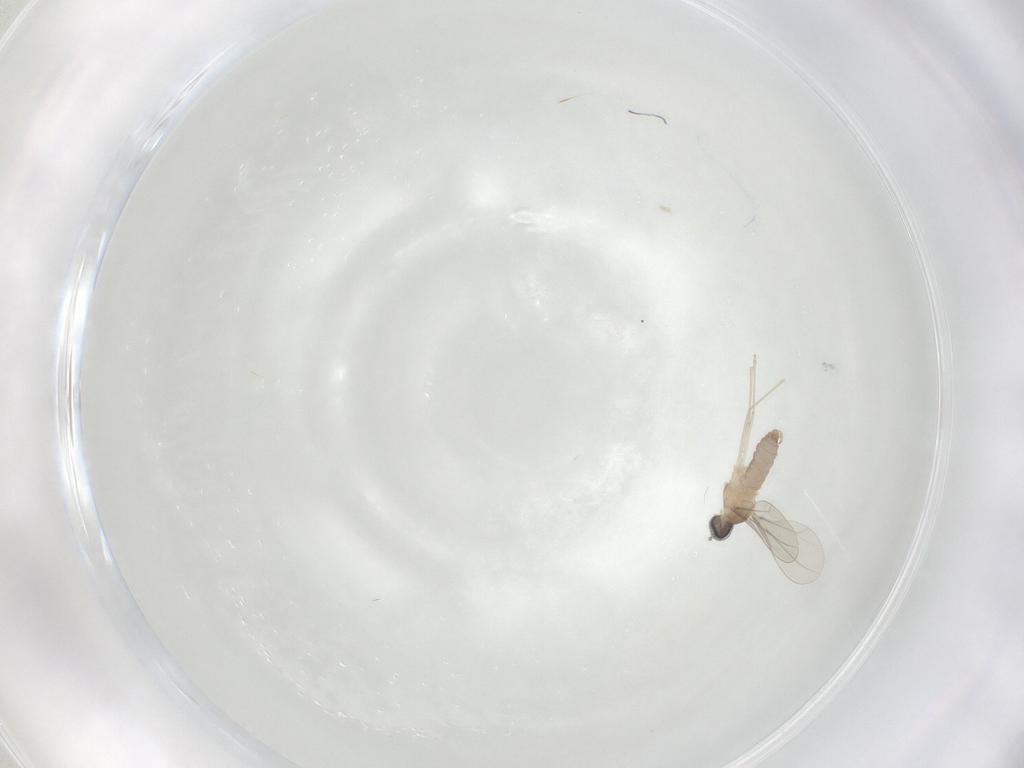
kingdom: Animalia
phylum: Arthropoda
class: Insecta
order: Diptera
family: Cecidomyiidae
